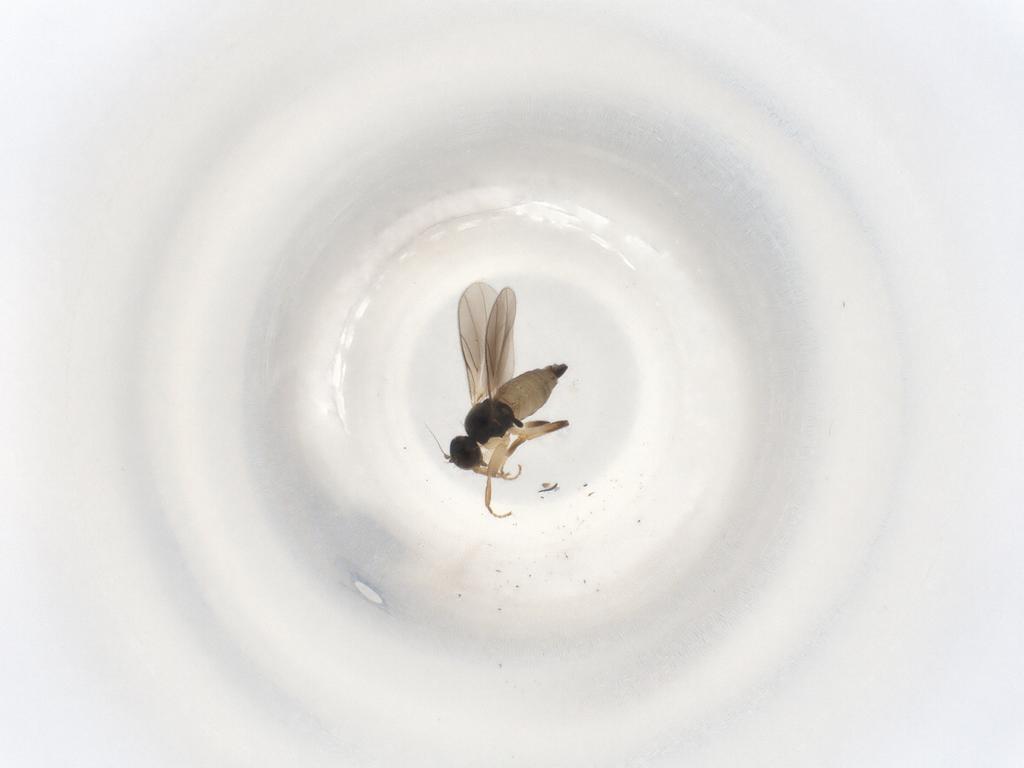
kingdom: Animalia
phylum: Arthropoda
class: Insecta
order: Diptera
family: Hybotidae
